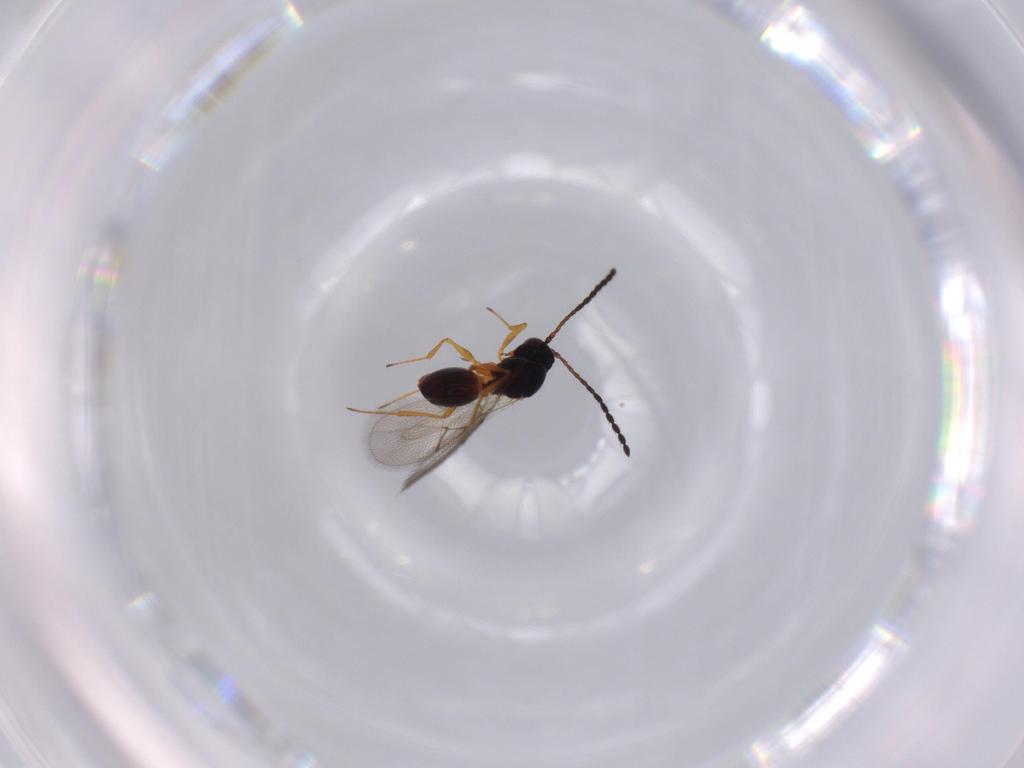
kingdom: Animalia
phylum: Arthropoda
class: Insecta
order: Hymenoptera
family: Figitidae
